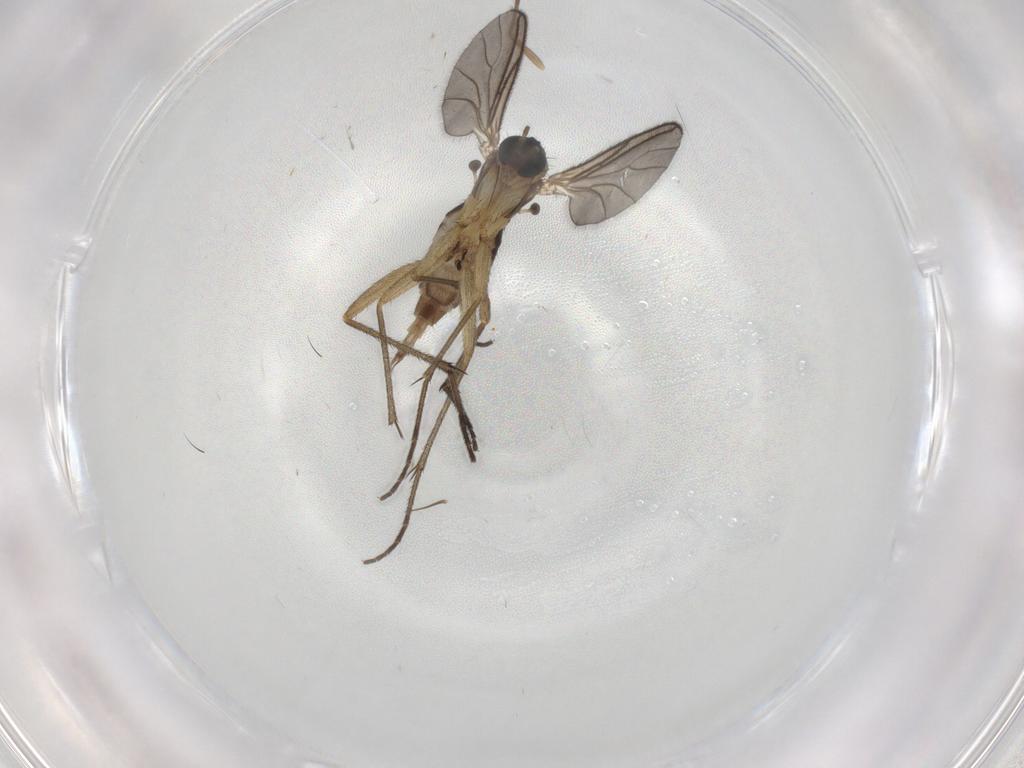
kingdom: Animalia
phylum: Arthropoda
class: Insecta
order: Diptera
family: Sciaridae
